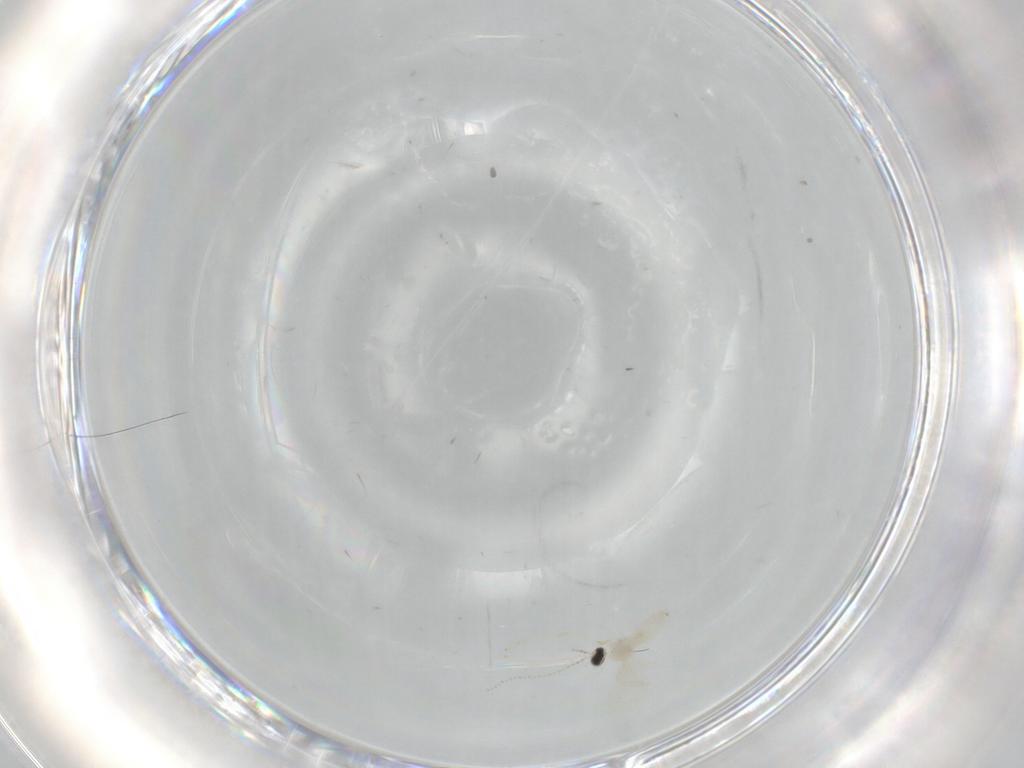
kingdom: Animalia
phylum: Arthropoda
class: Insecta
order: Diptera
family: Cecidomyiidae
